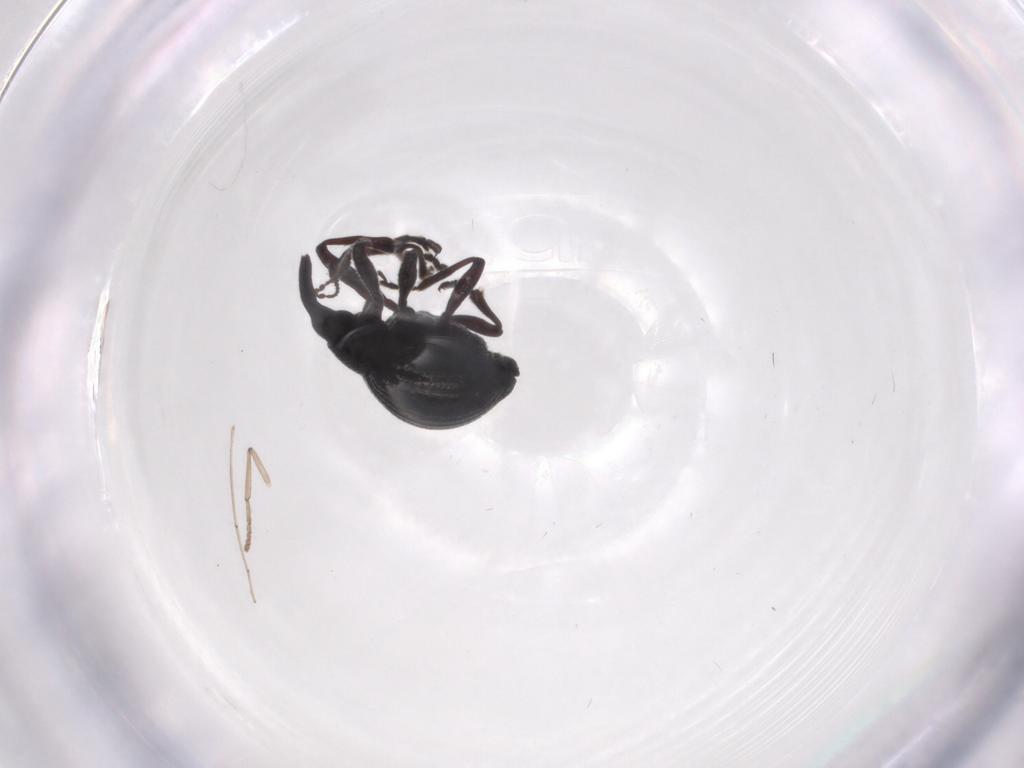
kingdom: Animalia
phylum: Arthropoda
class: Insecta
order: Coleoptera
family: Brentidae
